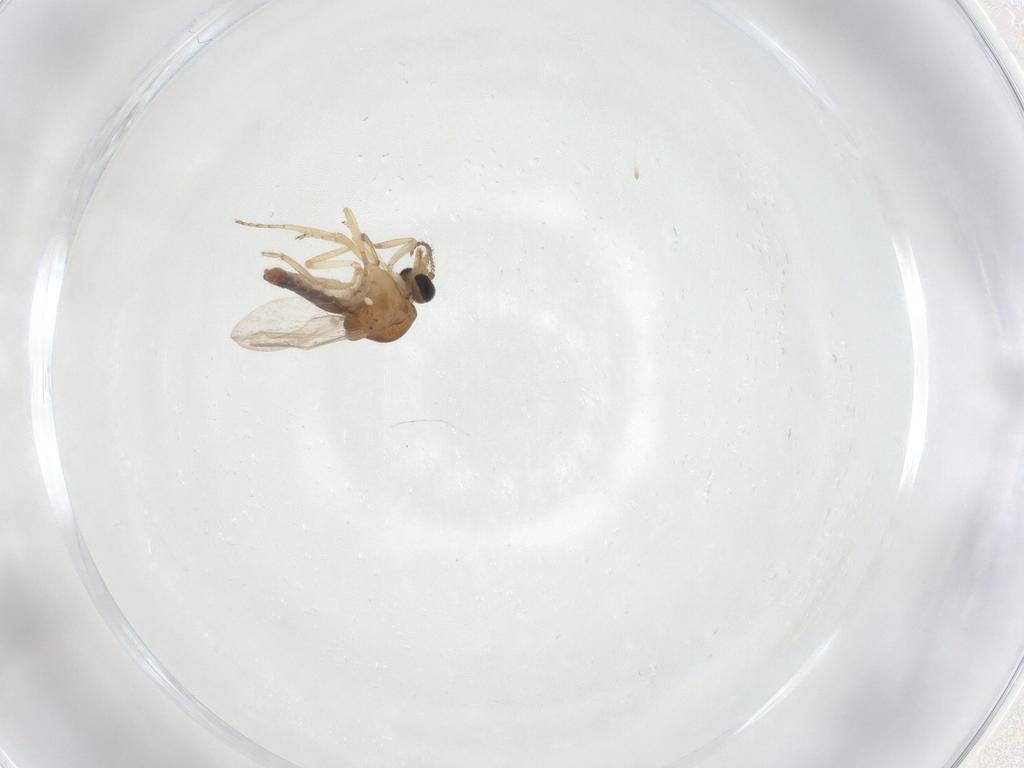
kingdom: Animalia
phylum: Arthropoda
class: Insecta
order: Diptera
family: Ceratopogonidae
